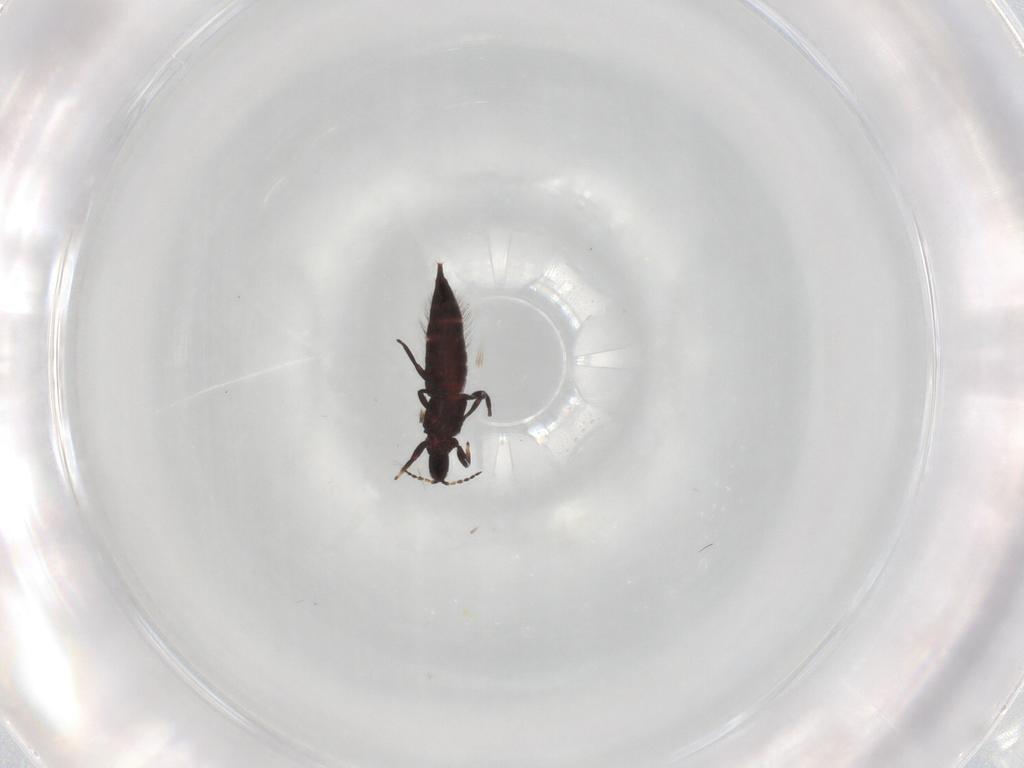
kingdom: Animalia
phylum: Arthropoda
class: Insecta
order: Thysanoptera
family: Phlaeothripidae
